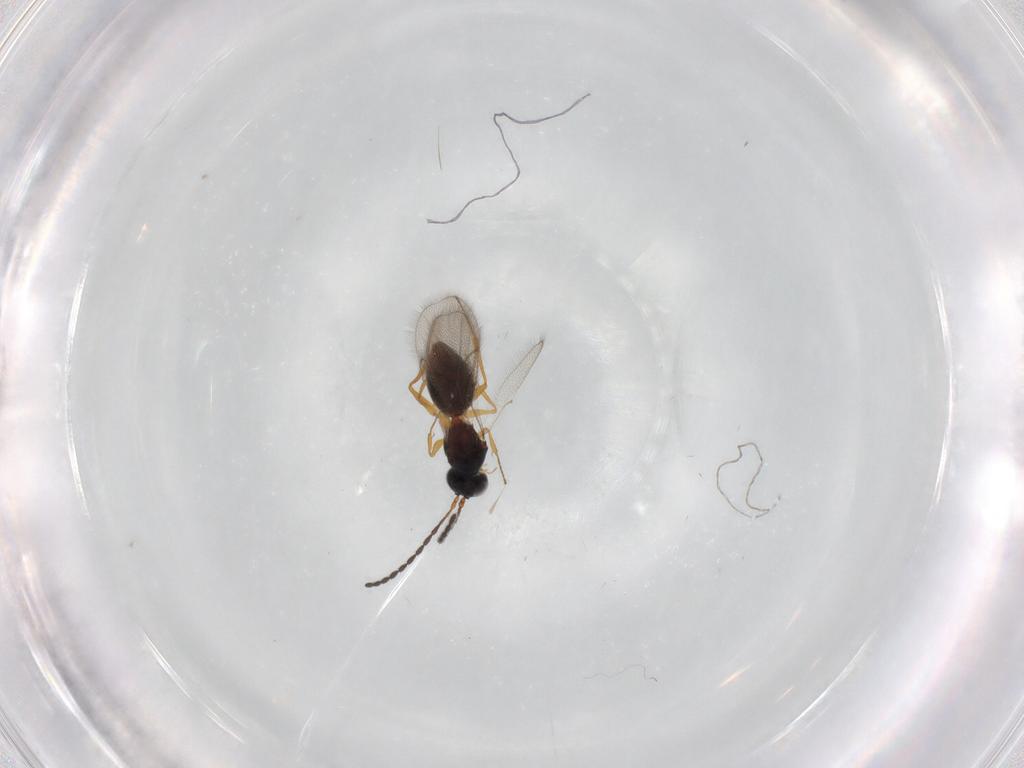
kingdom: Animalia
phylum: Arthropoda
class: Insecta
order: Hymenoptera
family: Figitidae
